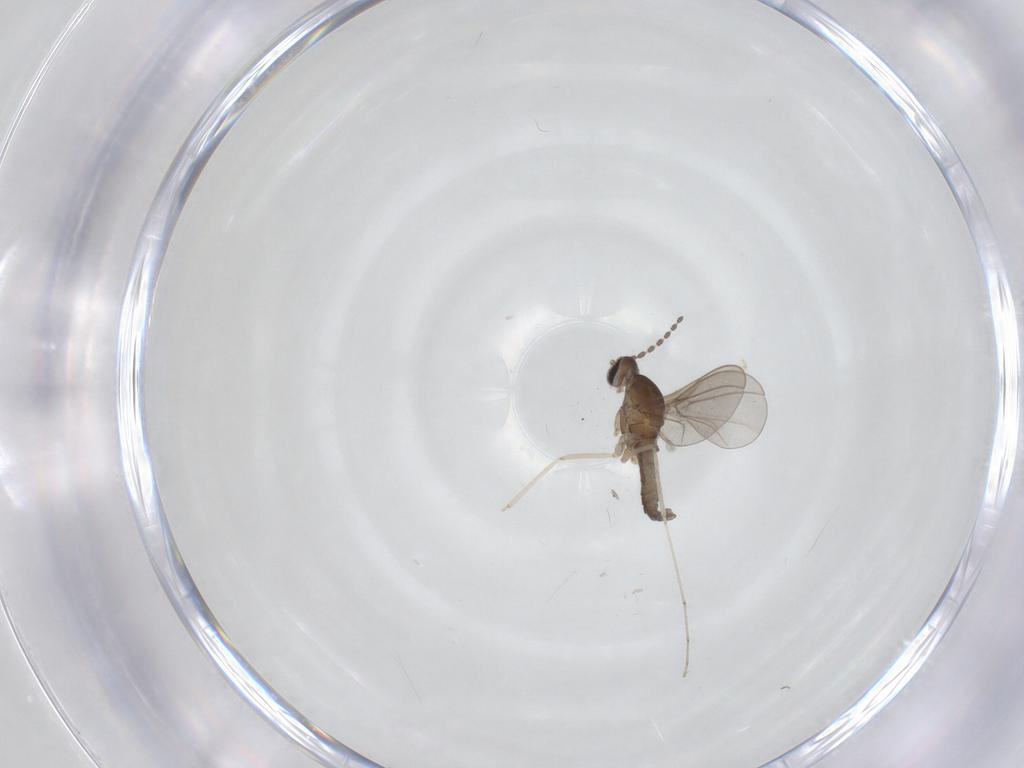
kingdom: Animalia
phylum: Arthropoda
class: Insecta
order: Diptera
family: Cecidomyiidae
